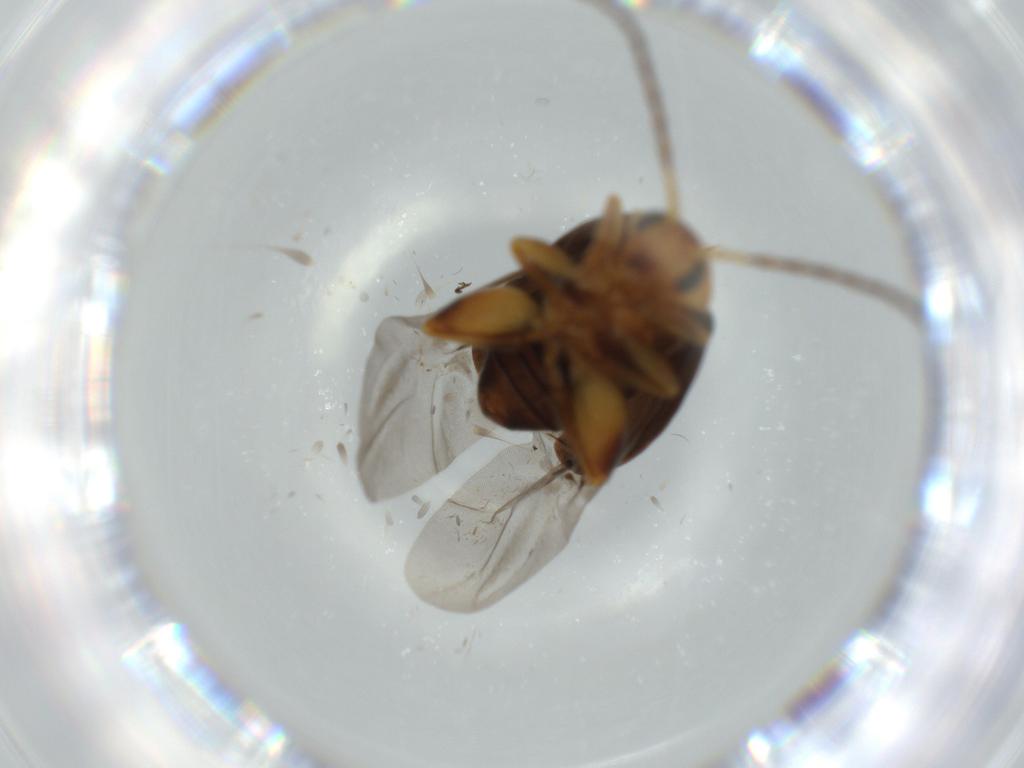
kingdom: Animalia
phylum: Arthropoda
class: Insecta
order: Coleoptera
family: Chrysomelidae
